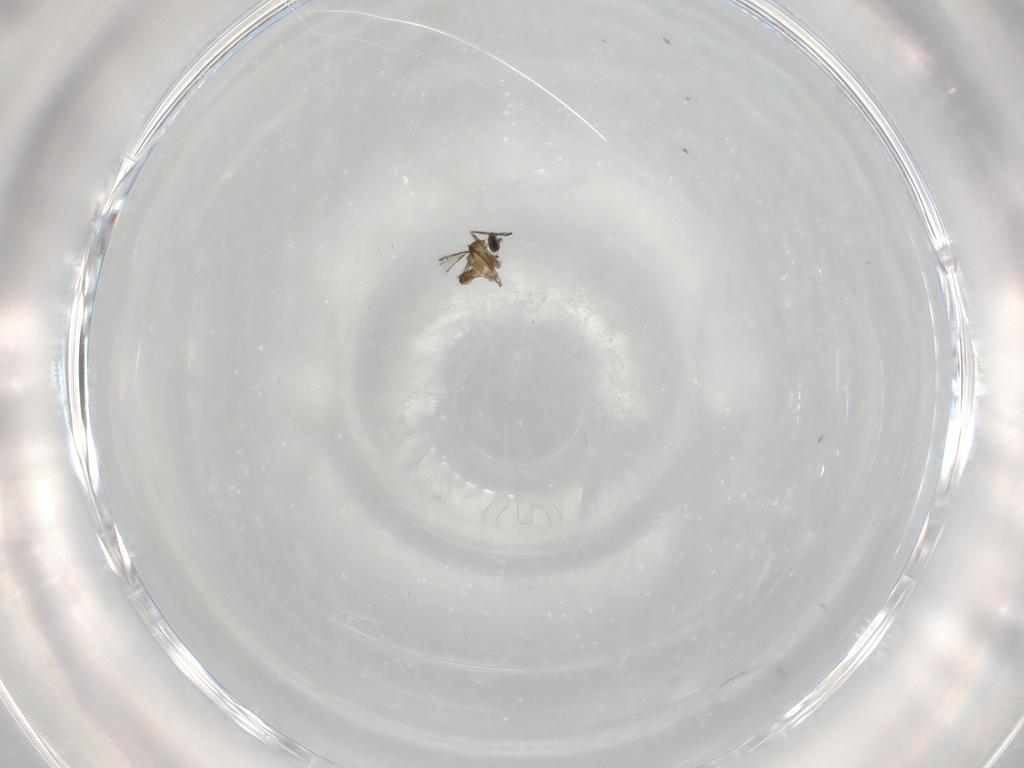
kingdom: Animalia
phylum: Arthropoda
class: Insecta
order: Diptera
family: Cecidomyiidae
